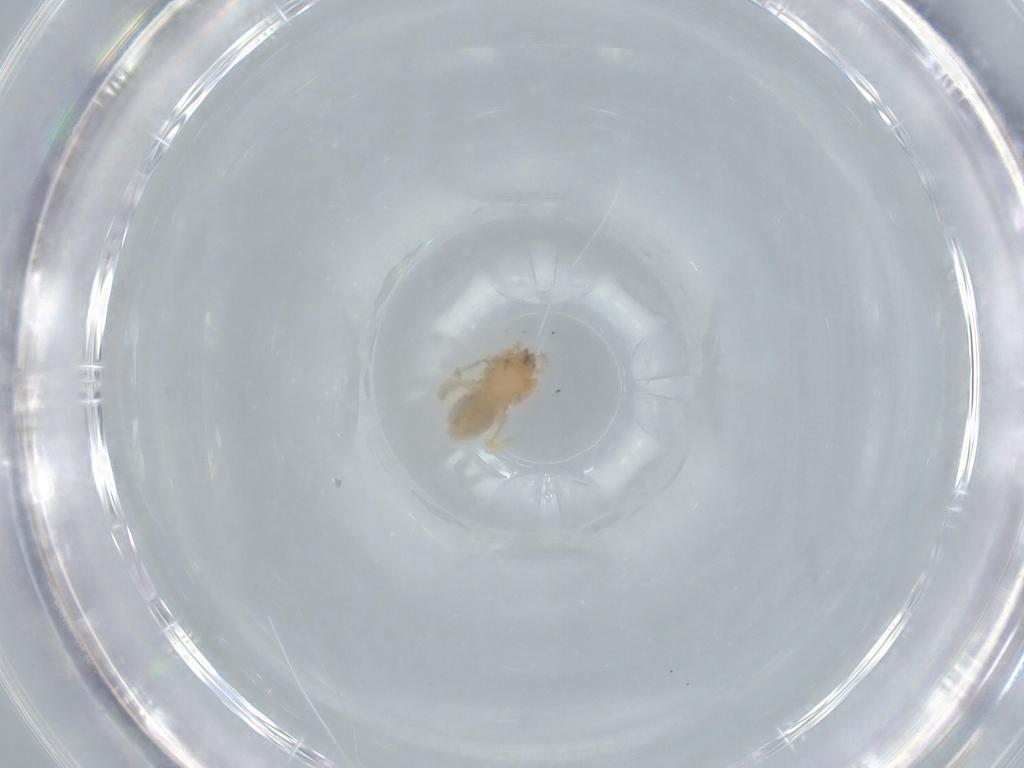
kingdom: Animalia
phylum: Arthropoda
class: Arachnida
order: Araneae
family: Oonopidae
